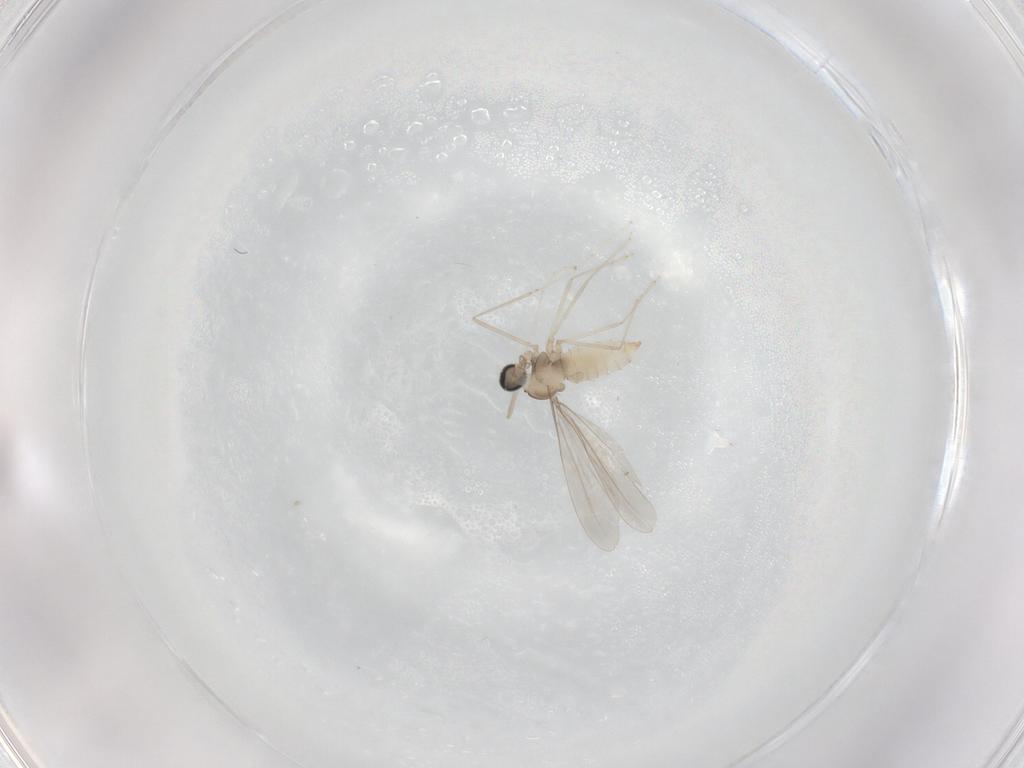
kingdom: Animalia
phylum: Arthropoda
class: Insecta
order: Diptera
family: Cecidomyiidae
